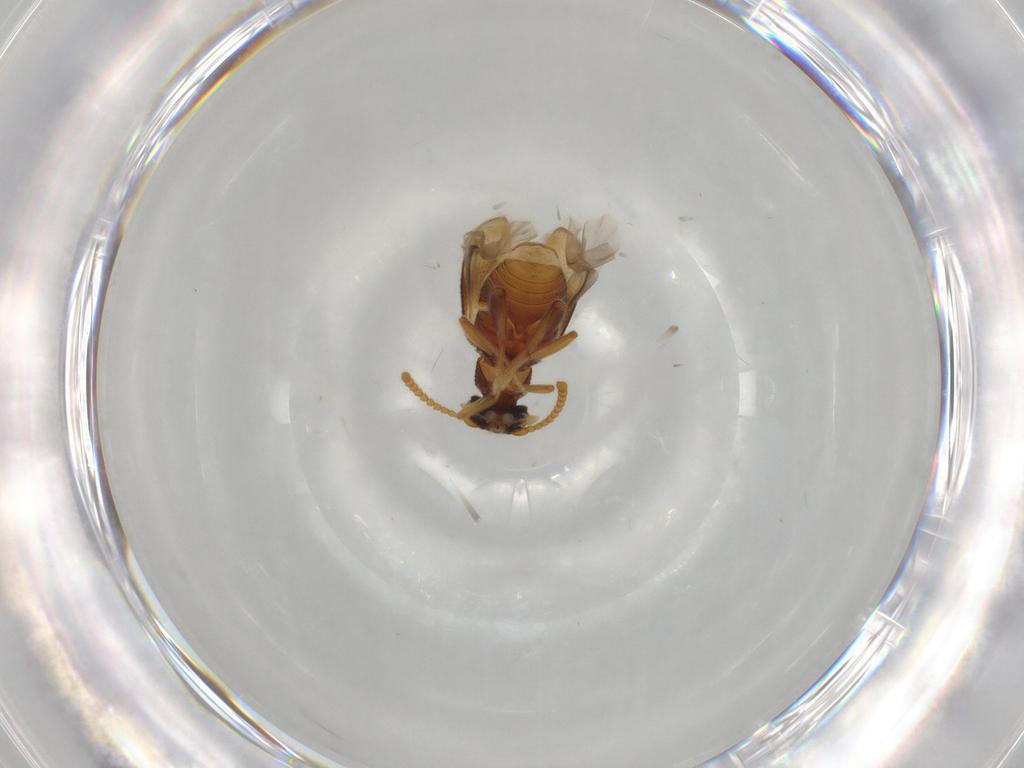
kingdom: Animalia
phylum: Arthropoda
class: Insecta
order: Coleoptera
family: Aderidae
